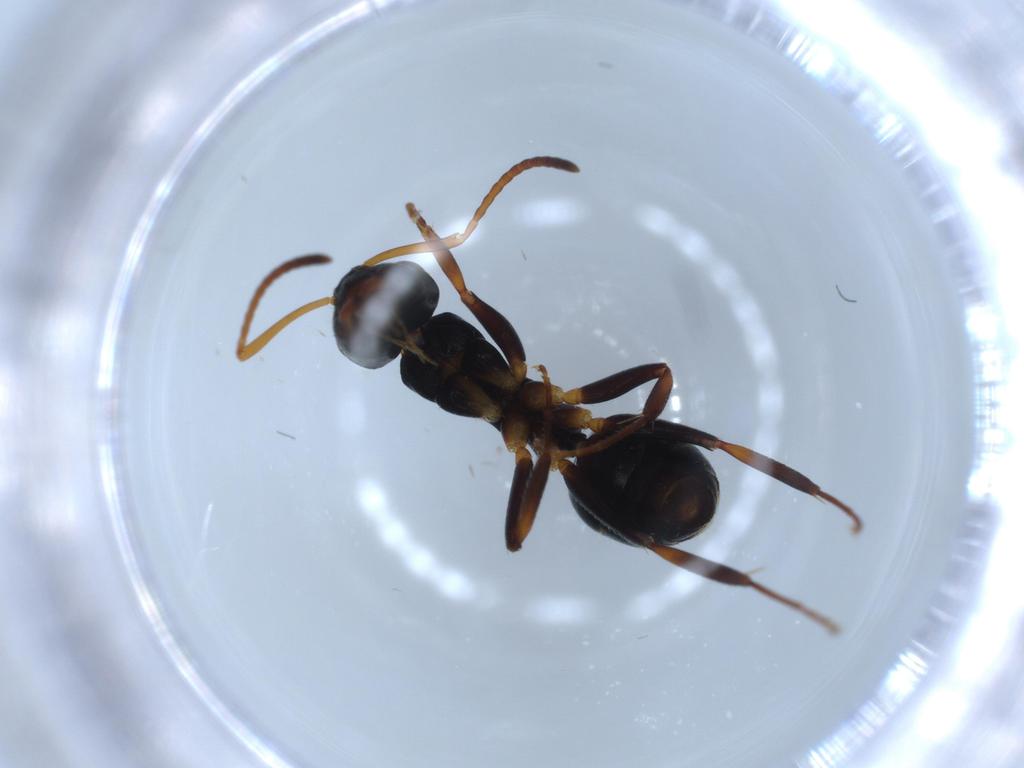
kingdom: Animalia
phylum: Arthropoda
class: Insecta
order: Hymenoptera
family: Formicidae
